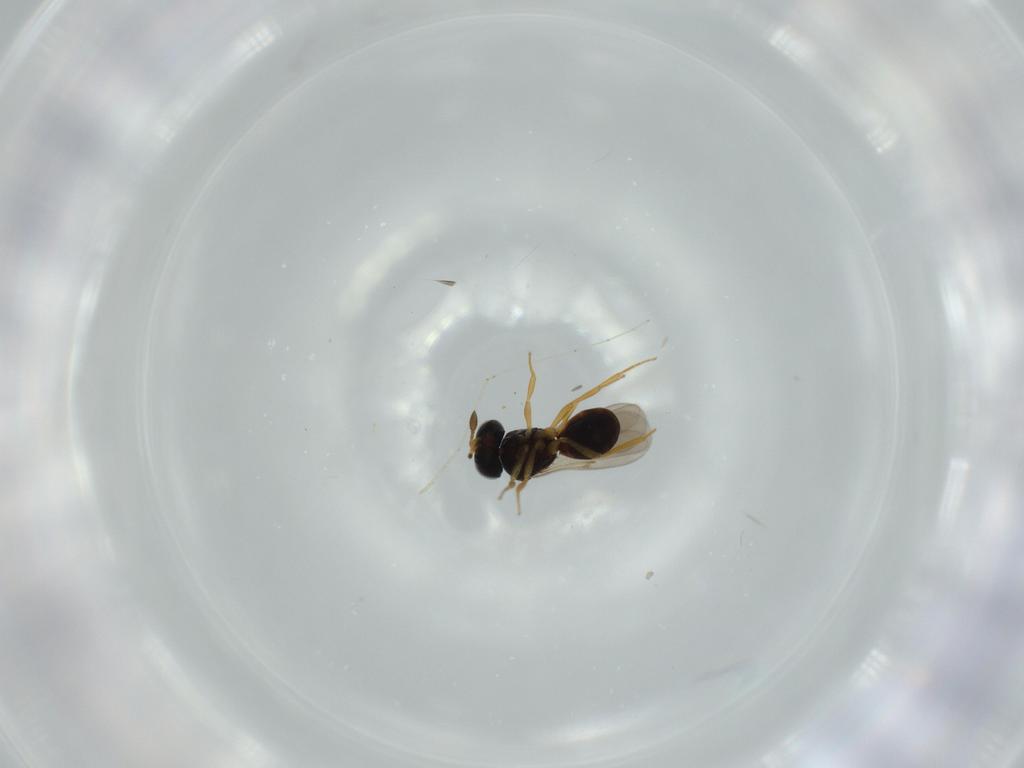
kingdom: Animalia
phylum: Arthropoda
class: Insecta
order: Hymenoptera
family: Scelionidae
